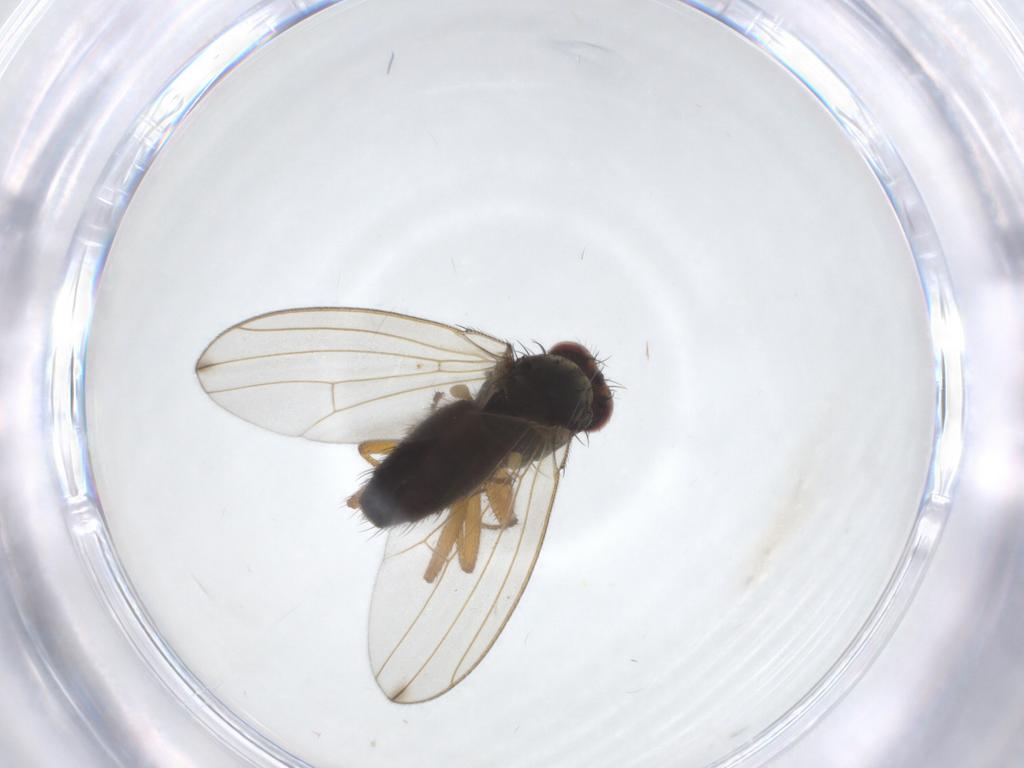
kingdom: Animalia
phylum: Arthropoda
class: Insecta
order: Diptera
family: Drosophilidae
